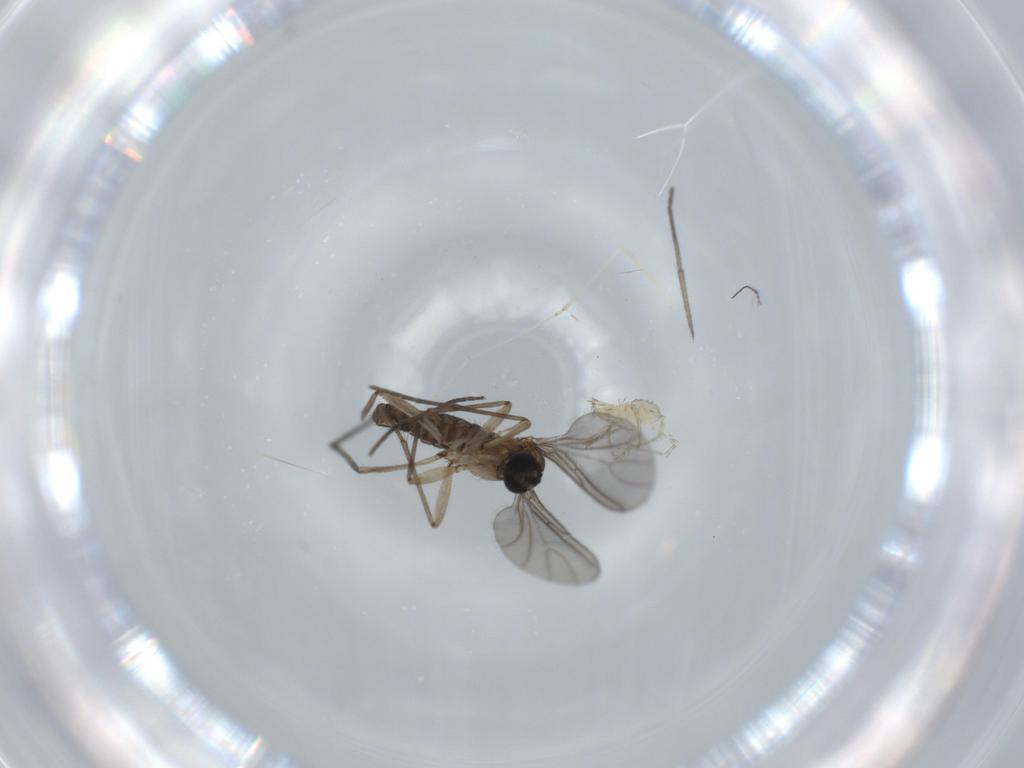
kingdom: Animalia
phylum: Arthropoda
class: Insecta
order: Diptera
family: Sciaridae
